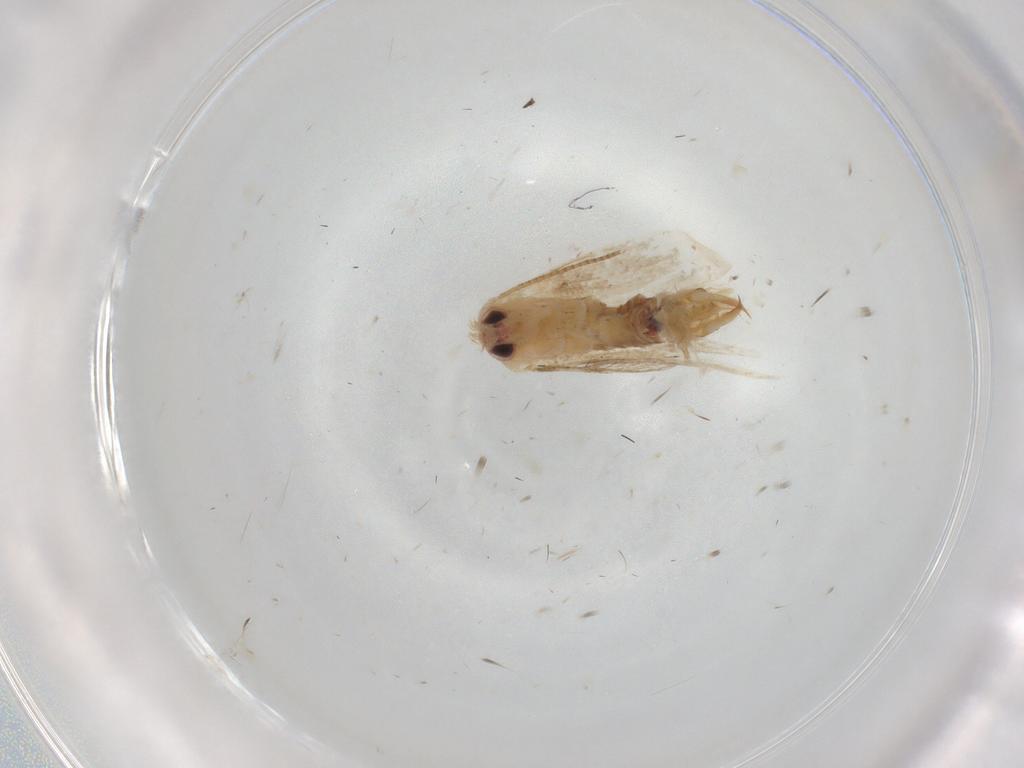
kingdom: Animalia
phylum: Arthropoda
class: Insecta
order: Lepidoptera
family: Noctuidae
